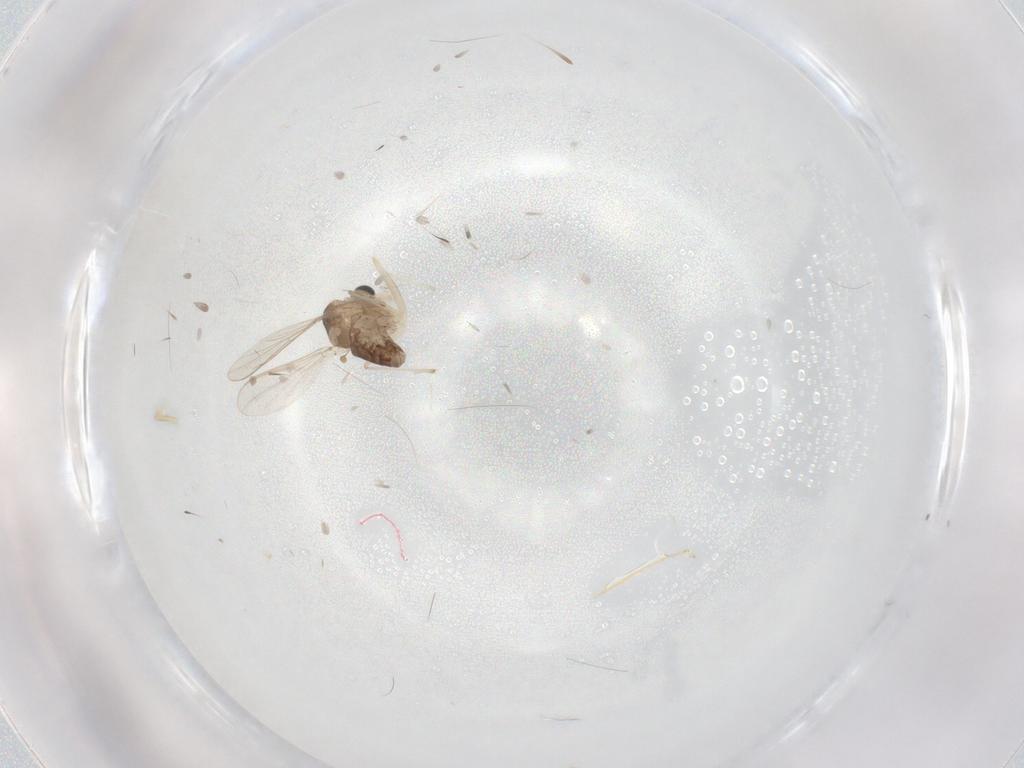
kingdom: Animalia
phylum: Arthropoda
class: Insecta
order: Diptera
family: Chironomidae
